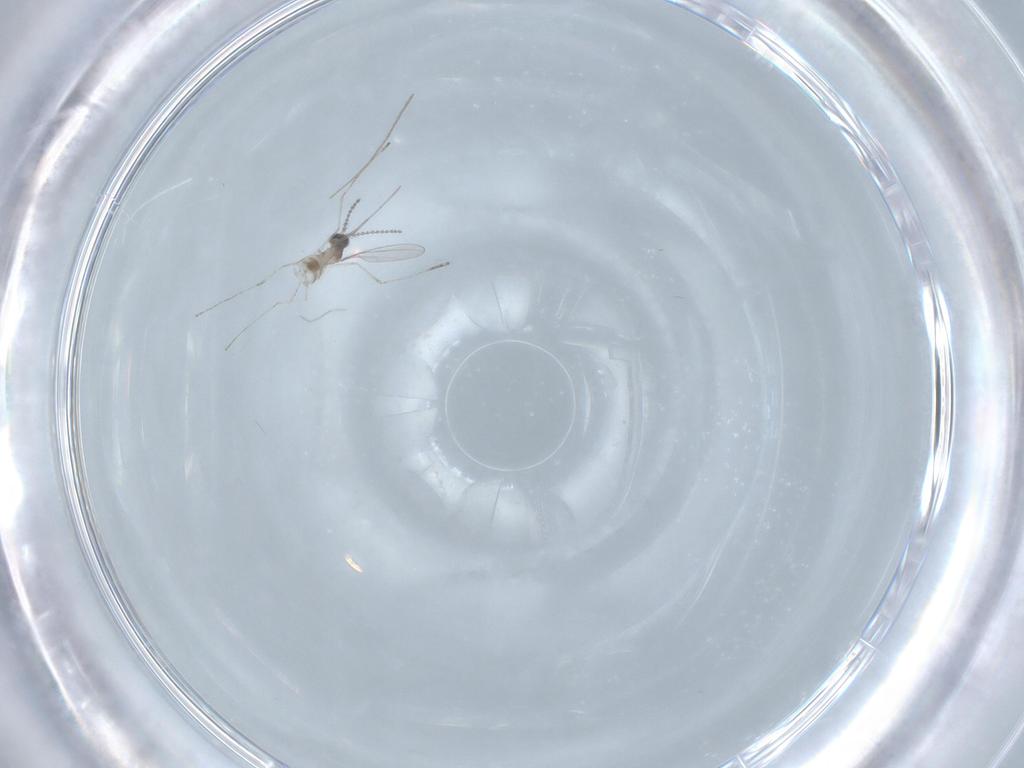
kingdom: Animalia
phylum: Arthropoda
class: Insecta
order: Diptera
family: Chironomidae
